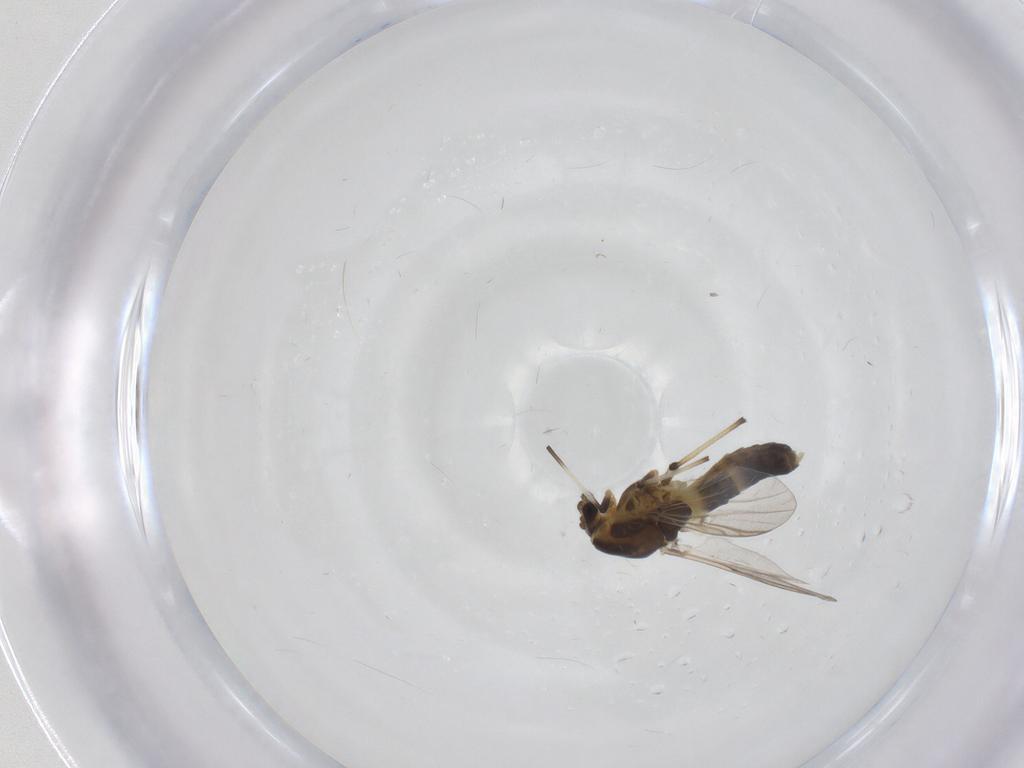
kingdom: Animalia
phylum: Arthropoda
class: Insecta
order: Diptera
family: Chironomidae
